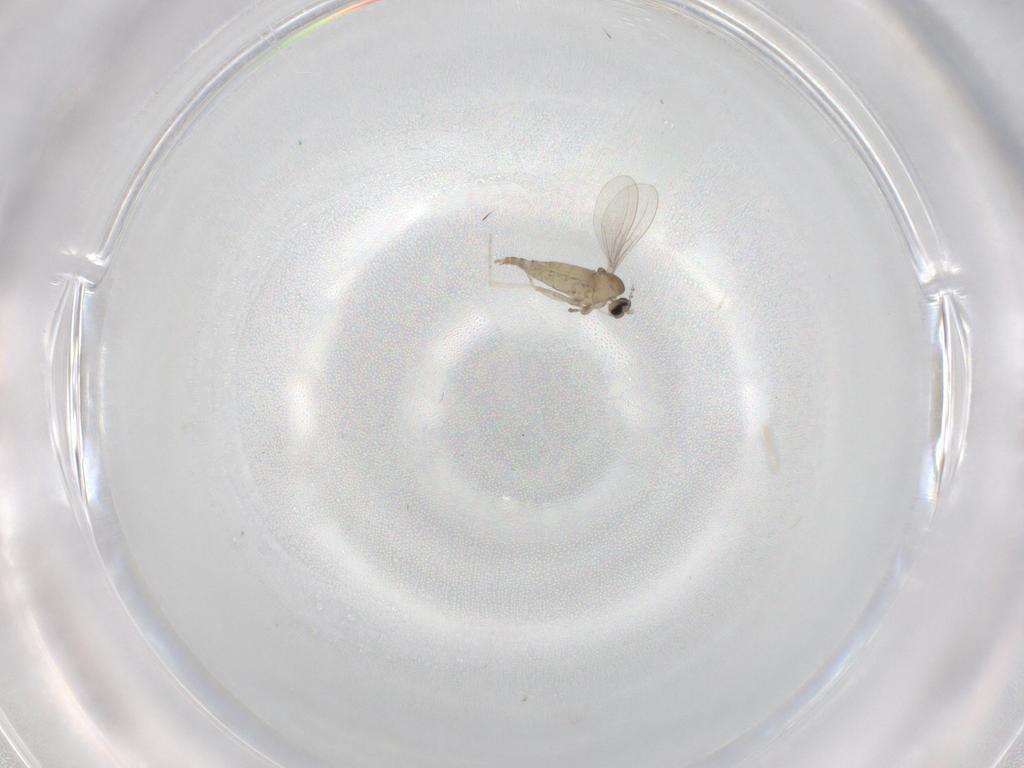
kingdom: Animalia
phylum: Arthropoda
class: Insecta
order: Diptera
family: Cecidomyiidae
